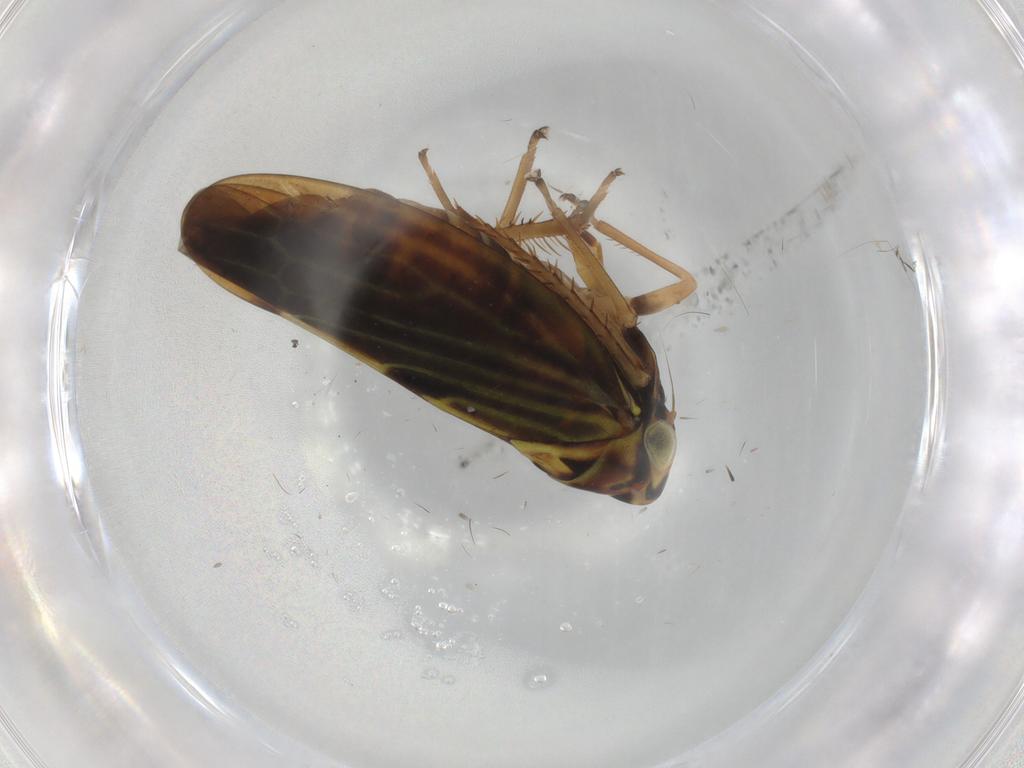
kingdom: Animalia
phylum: Arthropoda
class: Insecta
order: Hemiptera
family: Cicadellidae
